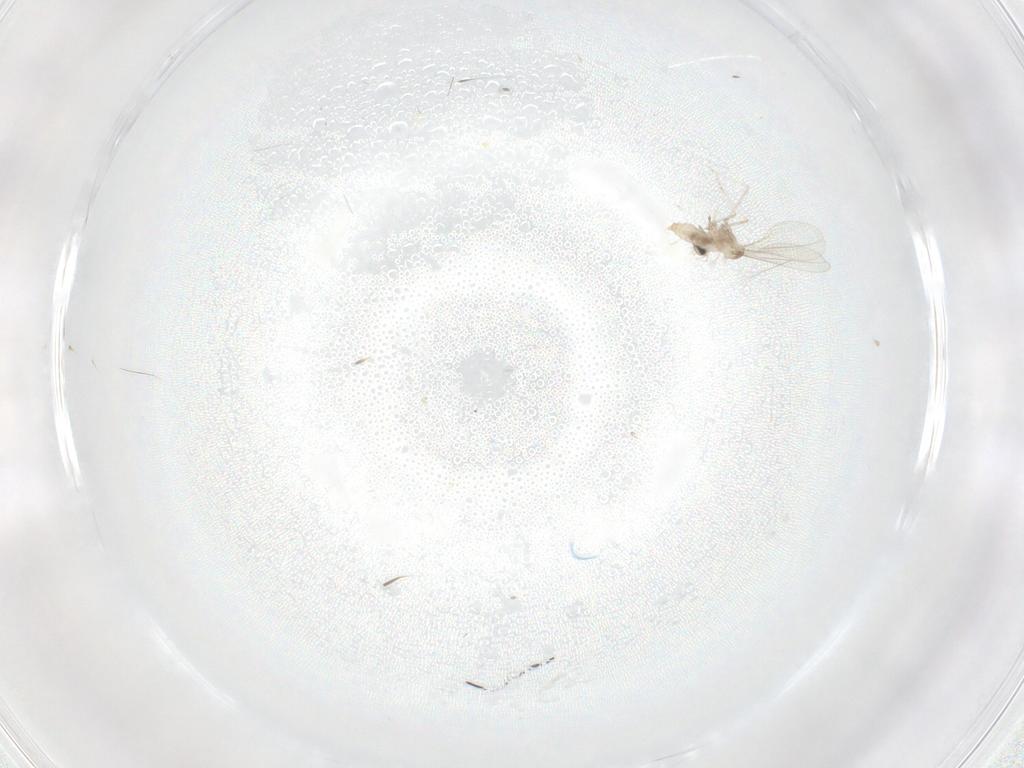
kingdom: Animalia
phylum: Arthropoda
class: Insecta
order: Diptera
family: Cecidomyiidae
